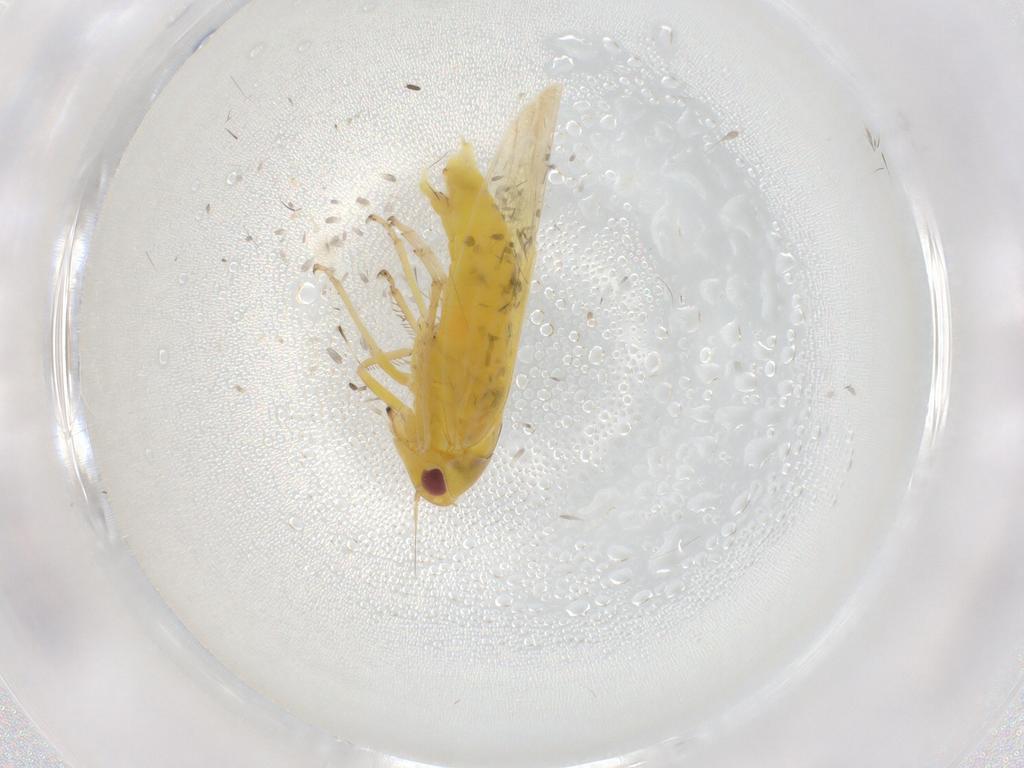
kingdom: Animalia
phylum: Arthropoda
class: Insecta
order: Hemiptera
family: Cicadellidae
